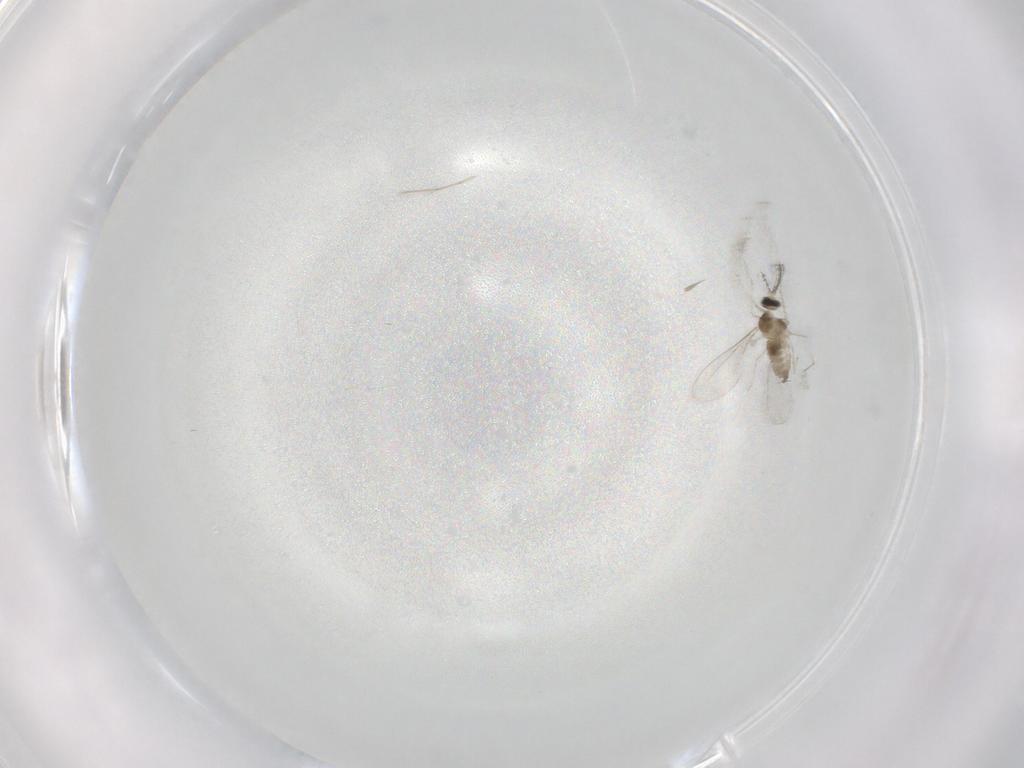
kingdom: Animalia
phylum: Arthropoda
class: Insecta
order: Diptera
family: Cecidomyiidae
